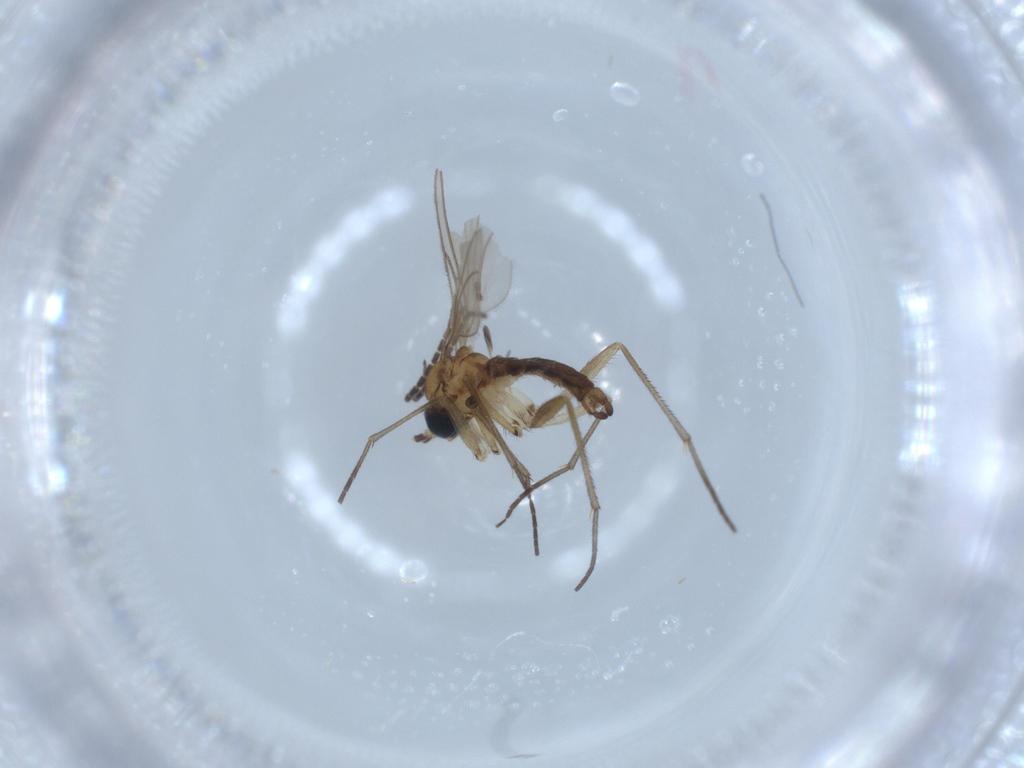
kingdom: Animalia
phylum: Arthropoda
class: Insecta
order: Diptera
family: Sciaridae
